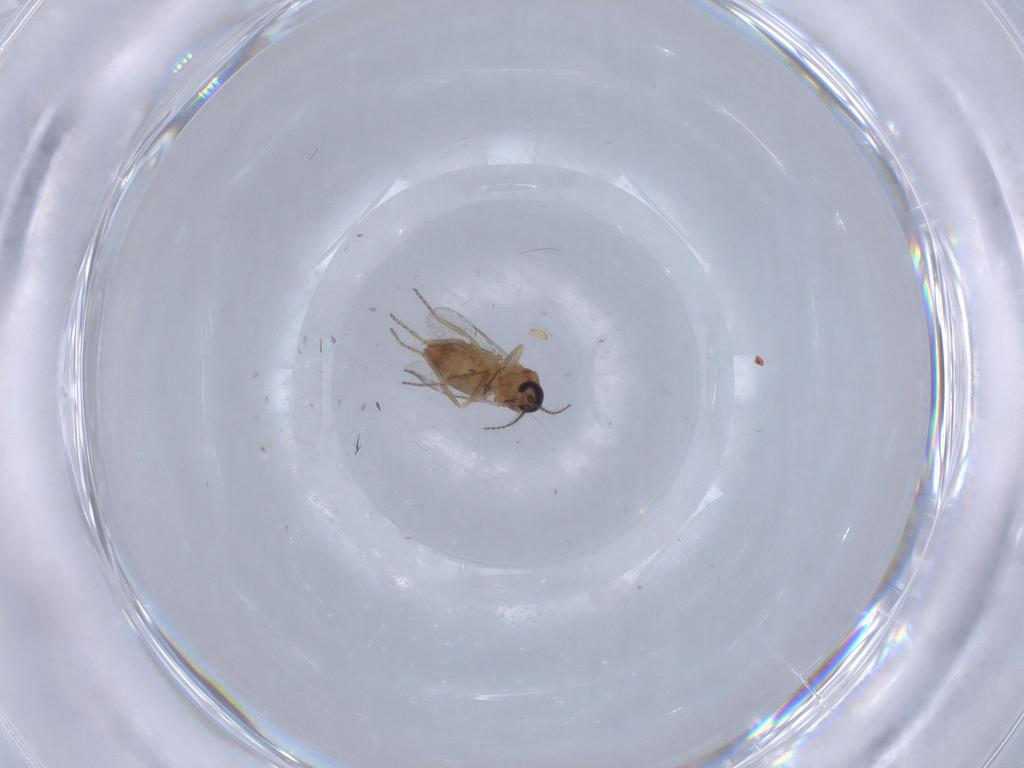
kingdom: Animalia
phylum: Arthropoda
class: Insecta
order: Diptera
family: Ceratopogonidae
